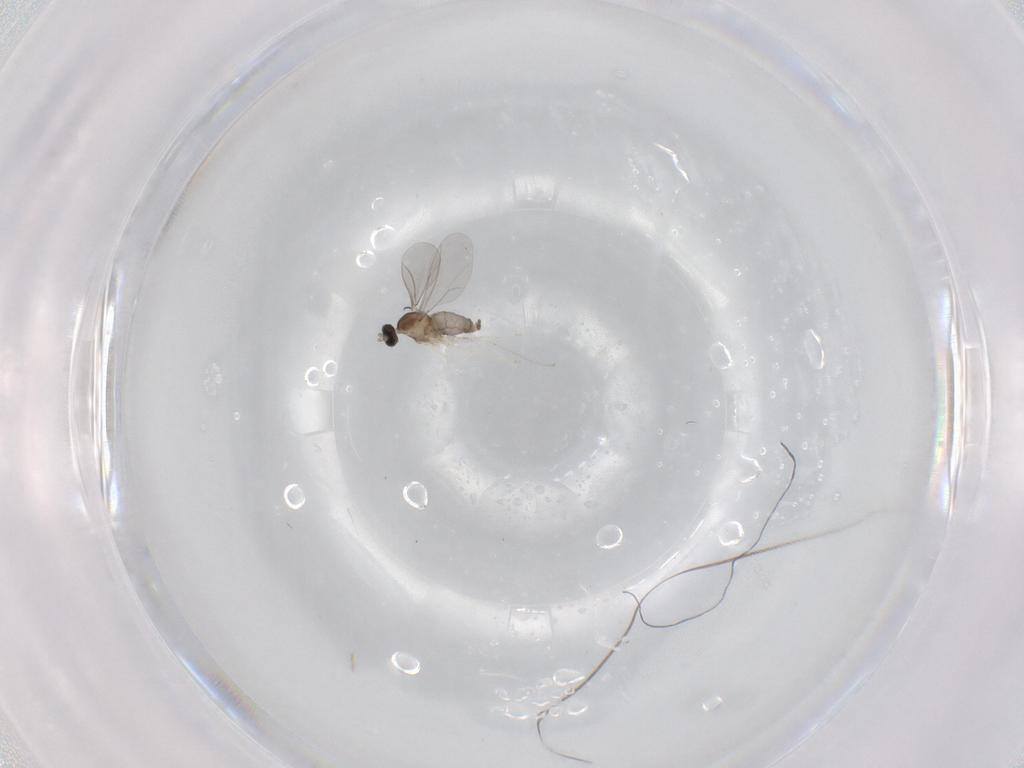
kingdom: Animalia
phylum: Arthropoda
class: Insecta
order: Diptera
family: Cecidomyiidae
